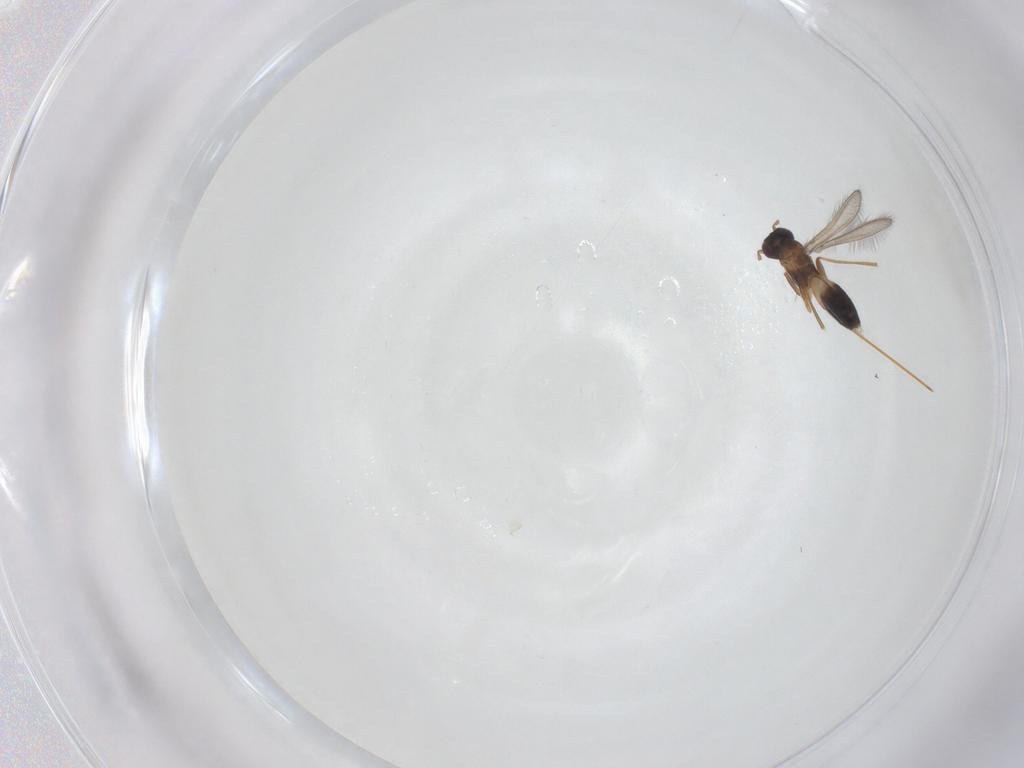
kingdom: Animalia
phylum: Arthropoda
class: Insecta
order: Hymenoptera
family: Mymaridae
